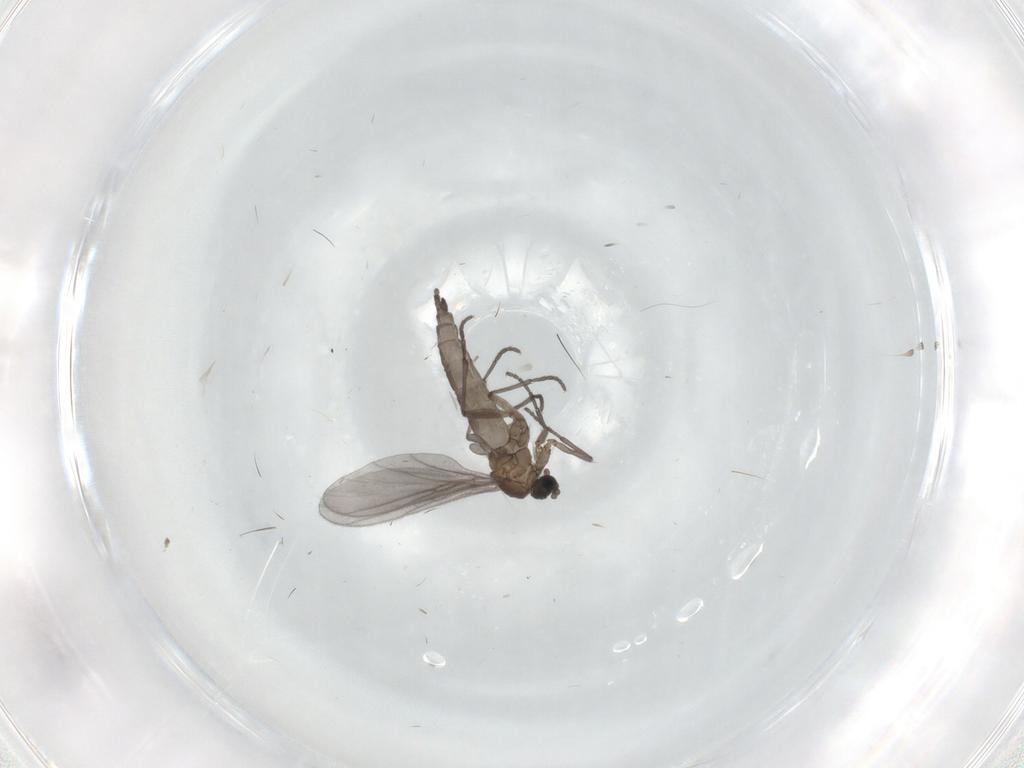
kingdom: Animalia
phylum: Arthropoda
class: Insecta
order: Diptera
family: Sciaridae
